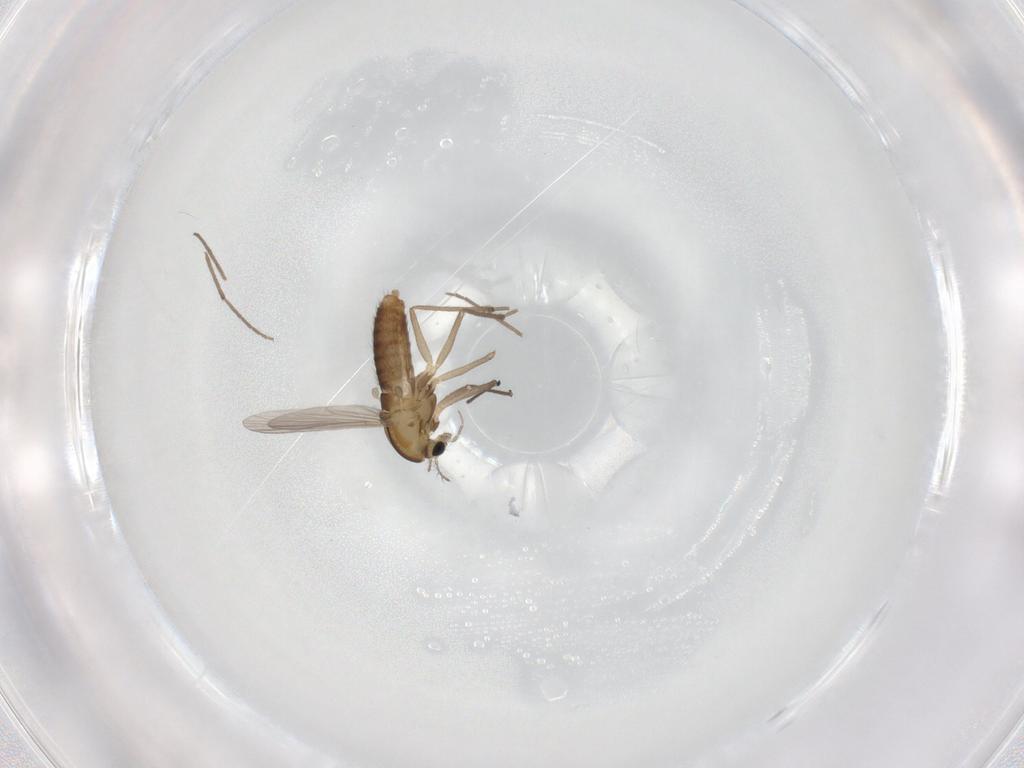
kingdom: Animalia
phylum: Arthropoda
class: Insecta
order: Diptera
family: Chironomidae
